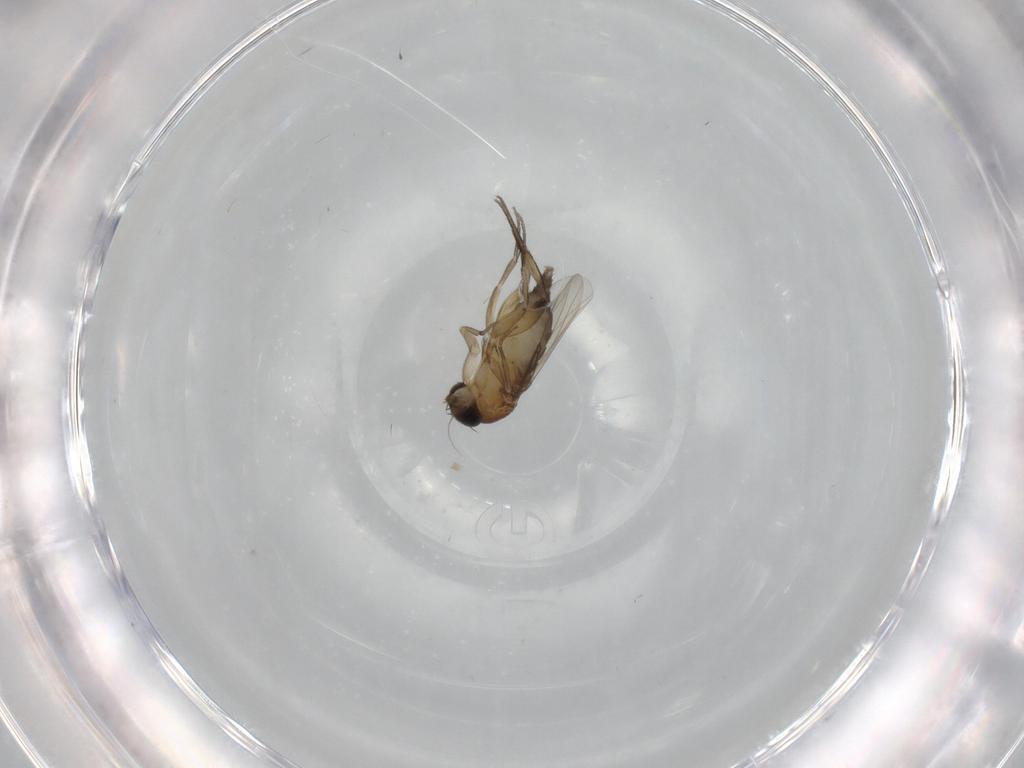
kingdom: Animalia
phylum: Arthropoda
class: Insecta
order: Diptera
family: Phoridae
